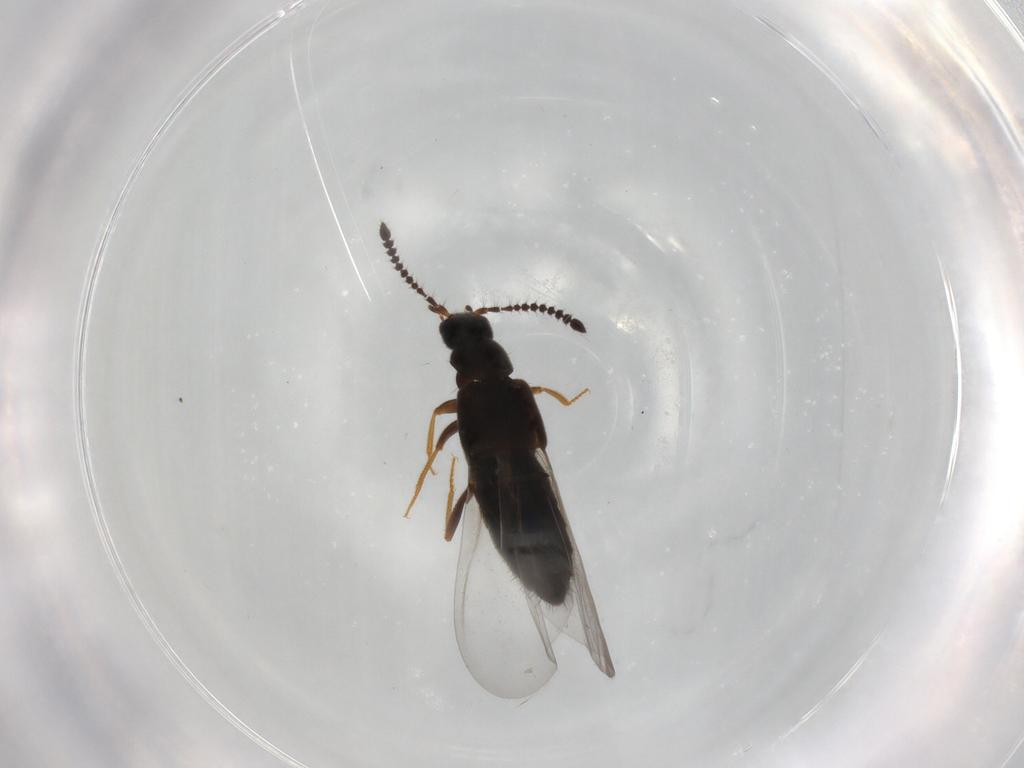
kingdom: Animalia
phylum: Arthropoda
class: Insecta
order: Coleoptera
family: Staphylinidae
